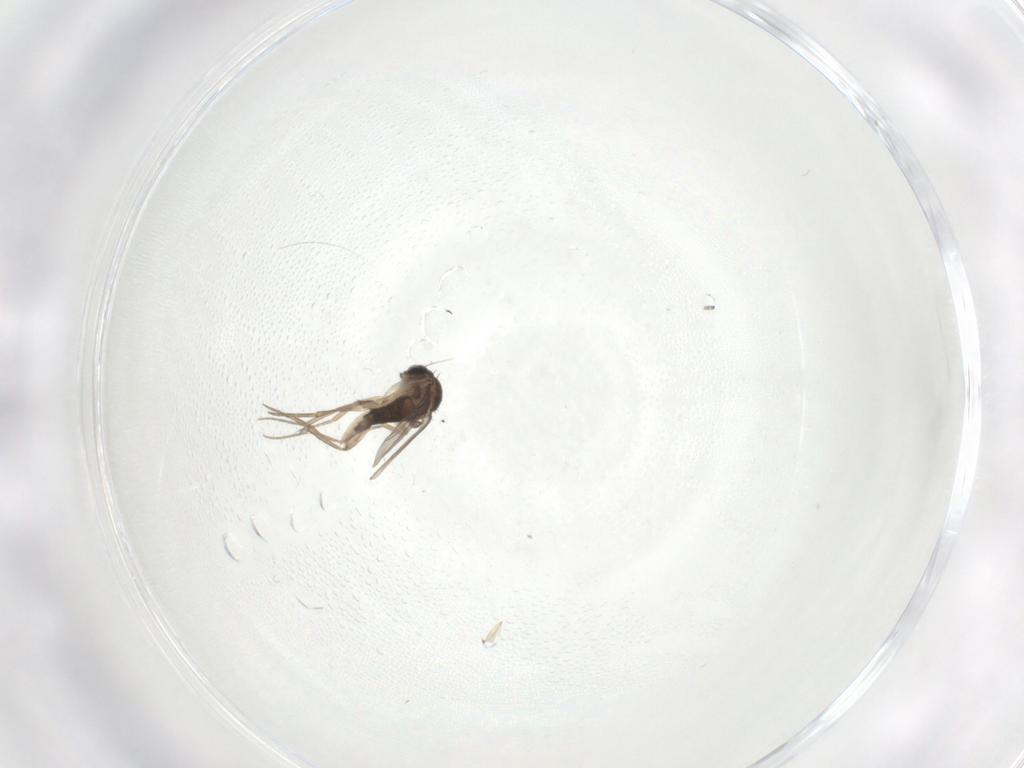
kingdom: Animalia
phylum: Arthropoda
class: Insecta
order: Diptera
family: Phoridae
